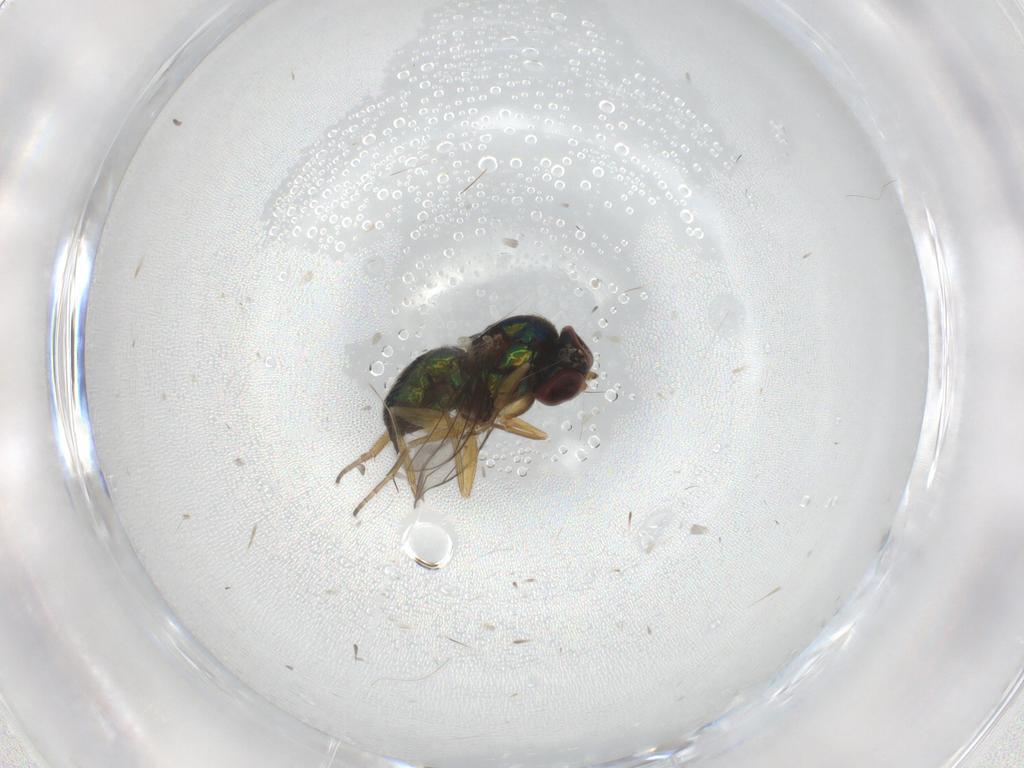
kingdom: Animalia
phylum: Arthropoda
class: Insecta
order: Diptera
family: Dolichopodidae
